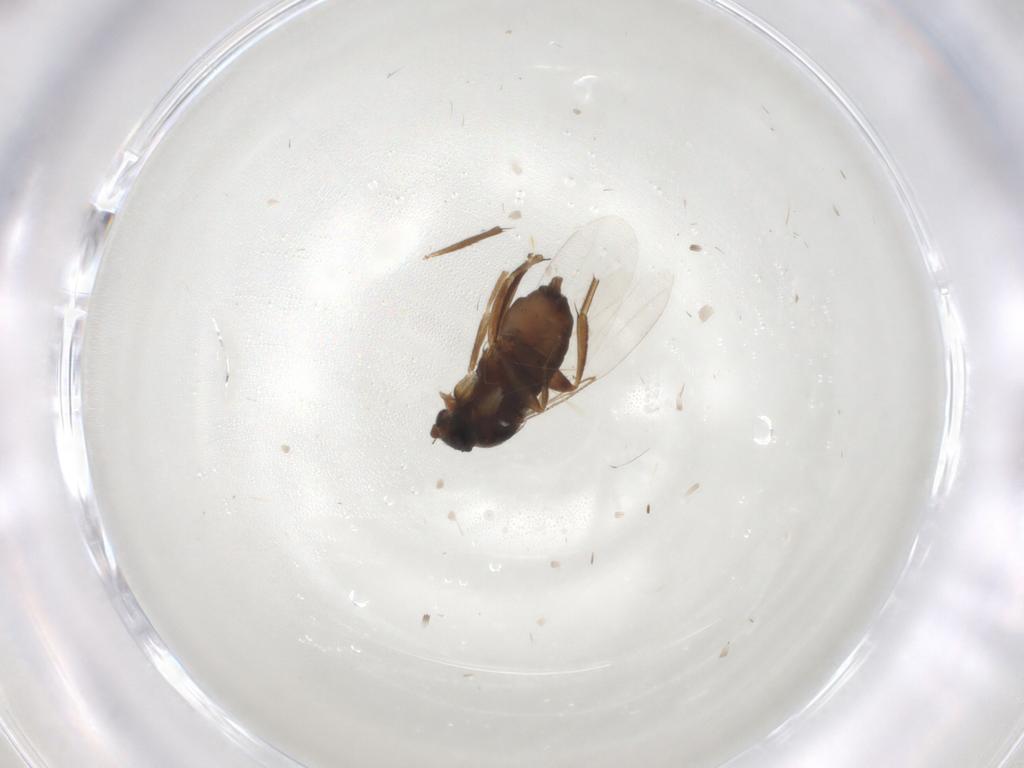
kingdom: Animalia
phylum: Arthropoda
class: Insecta
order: Diptera
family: Phoridae
